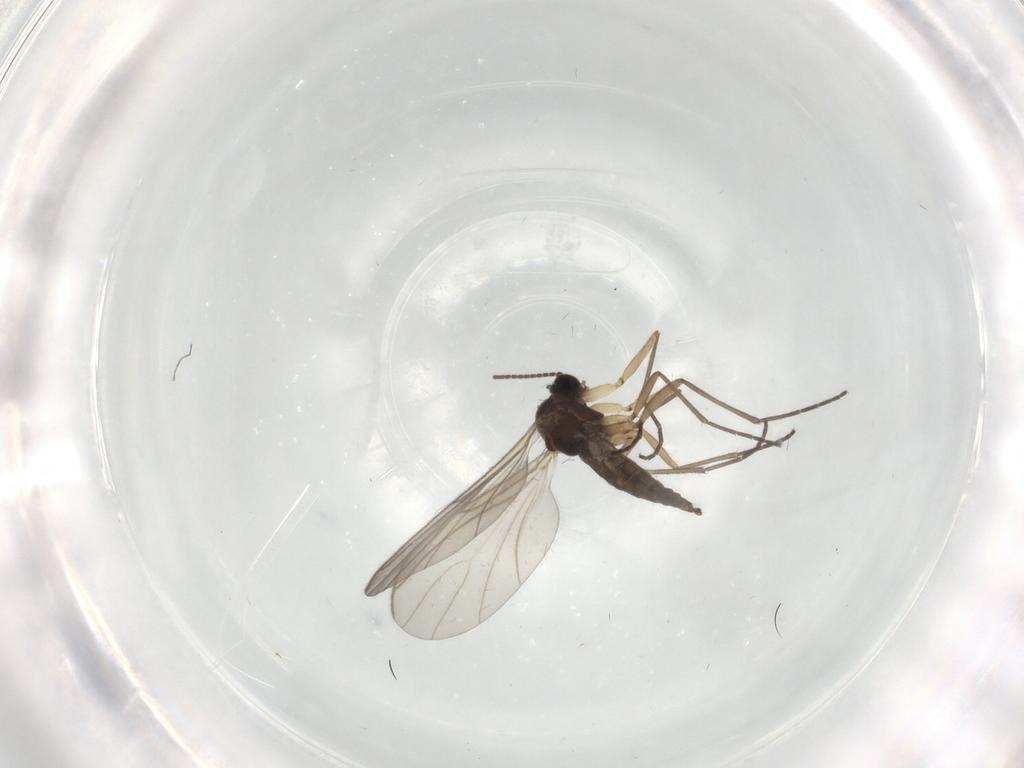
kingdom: Animalia
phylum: Arthropoda
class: Insecta
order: Diptera
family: Sciaridae
